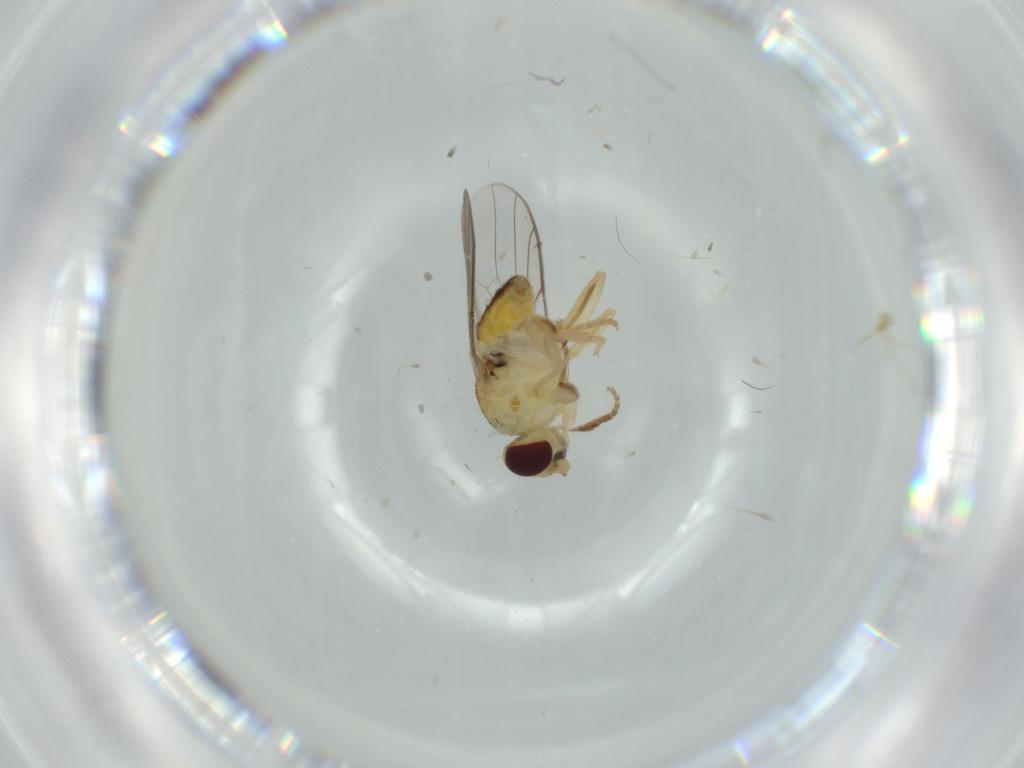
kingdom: Animalia
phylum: Arthropoda
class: Insecta
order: Diptera
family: Chloropidae
